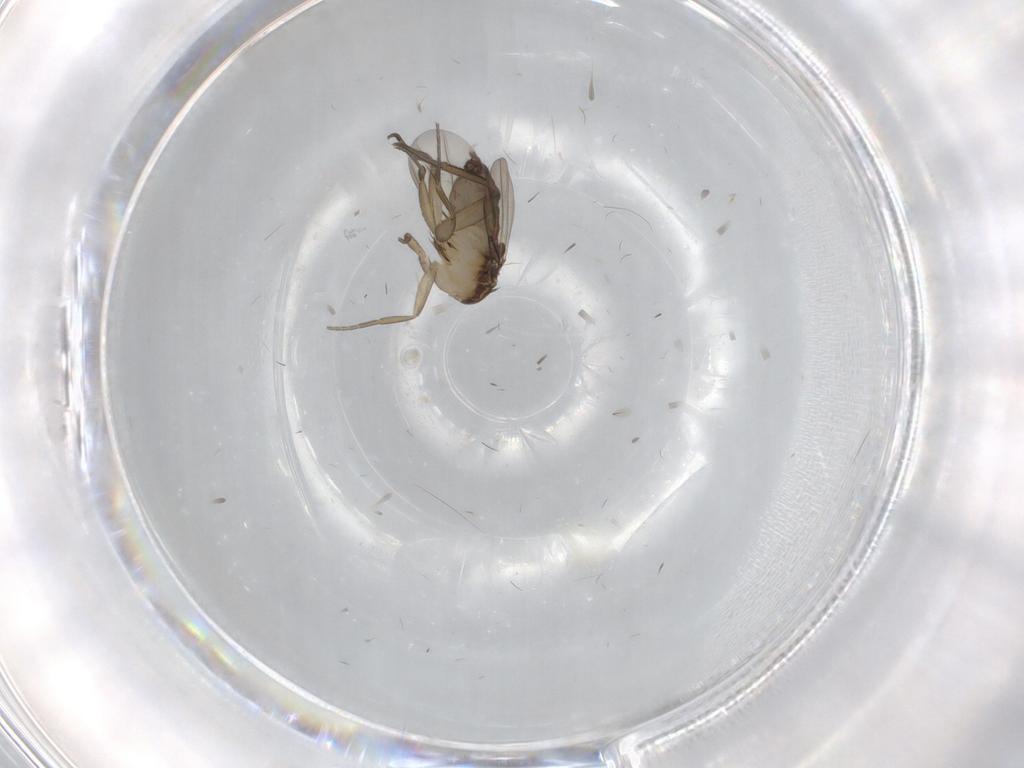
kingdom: Animalia
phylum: Arthropoda
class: Insecta
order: Diptera
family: Phoridae
